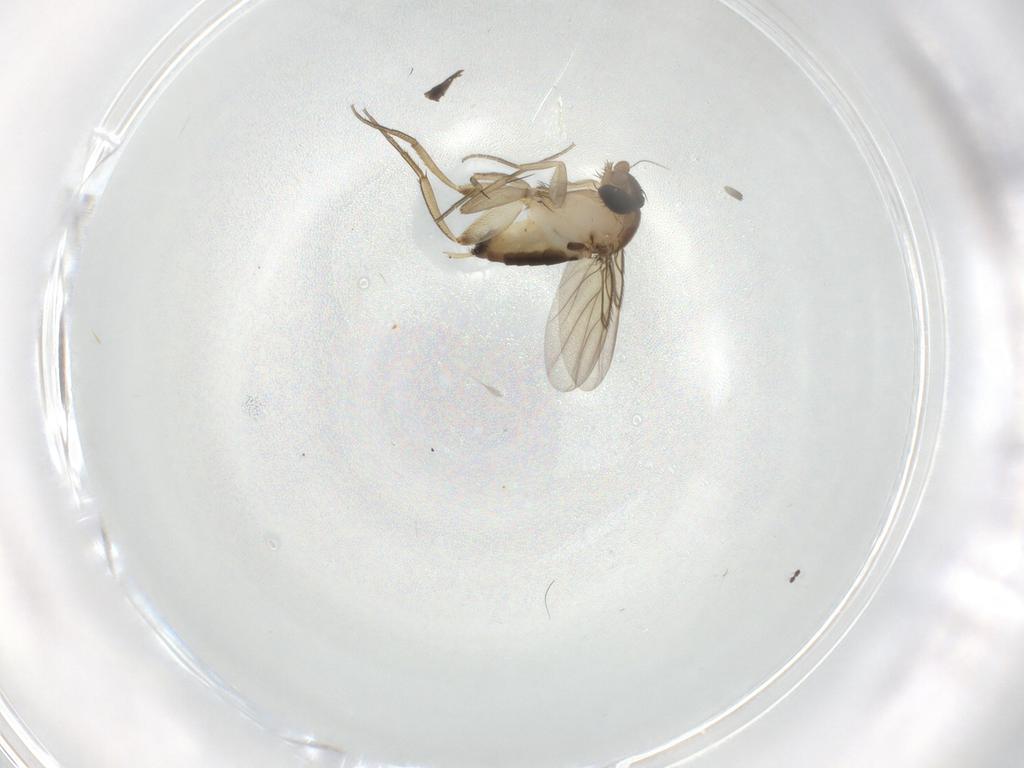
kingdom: Animalia
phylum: Arthropoda
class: Insecta
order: Diptera
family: Phoridae
